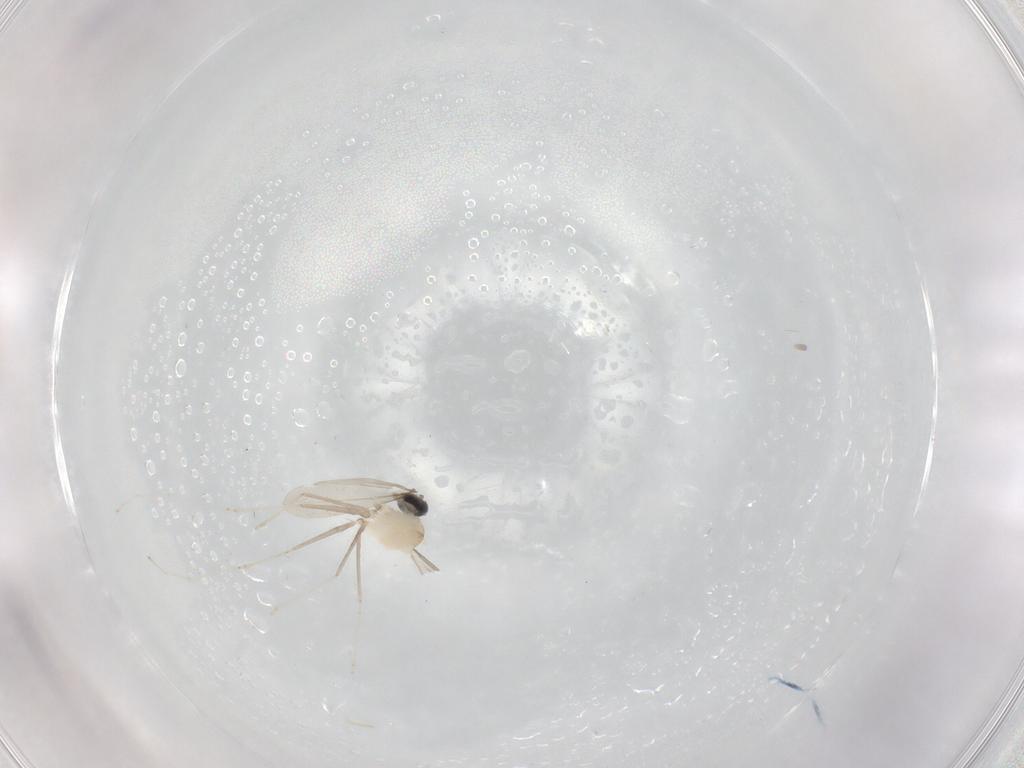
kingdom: Animalia
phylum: Arthropoda
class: Insecta
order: Diptera
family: Cecidomyiidae
